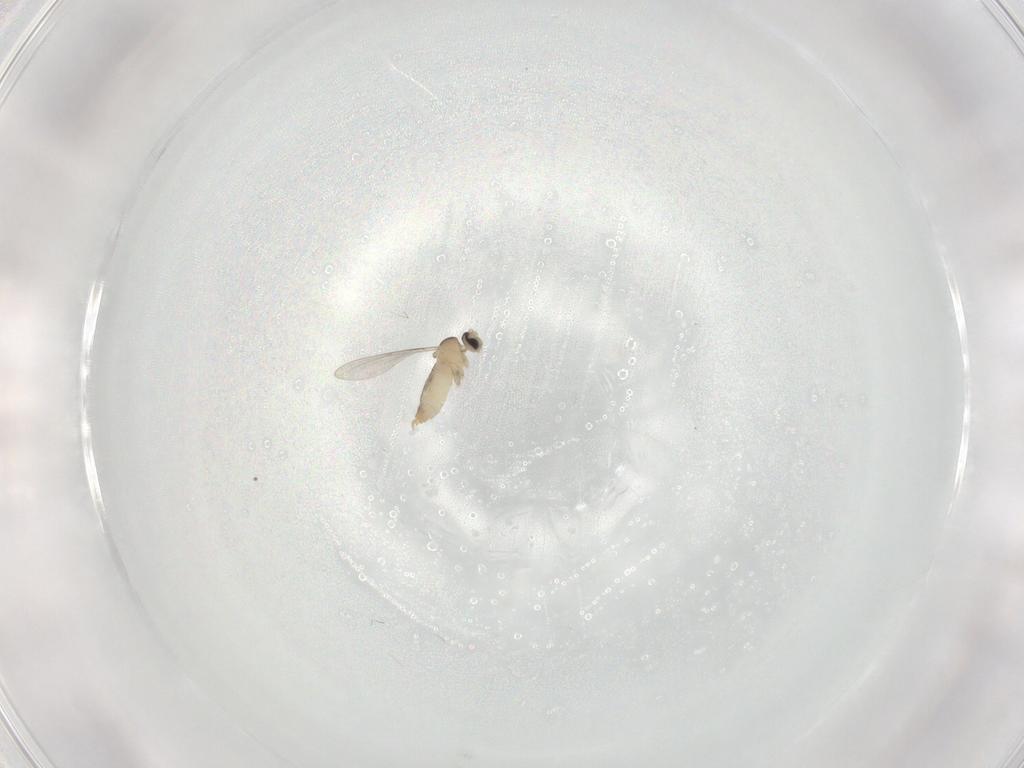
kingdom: Animalia
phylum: Arthropoda
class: Insecta
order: Diptera
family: Cecidomyiidae
